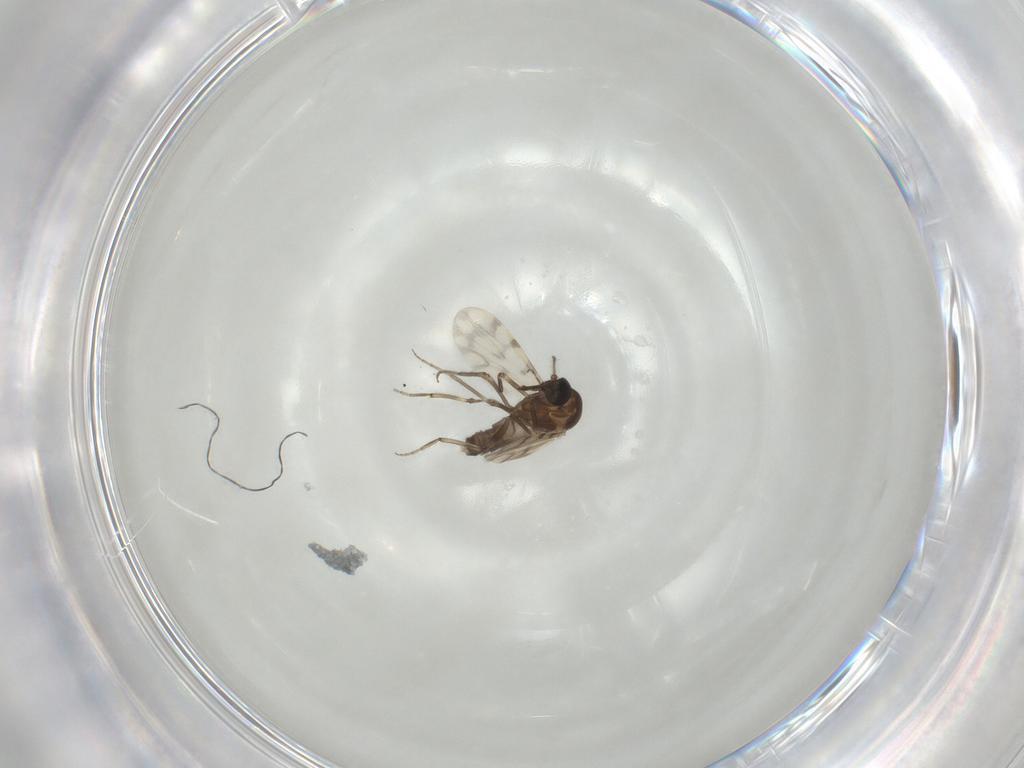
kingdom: Animalia
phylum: Arthropoda
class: Insecta
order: Diptera
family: Ceratopogonidae
